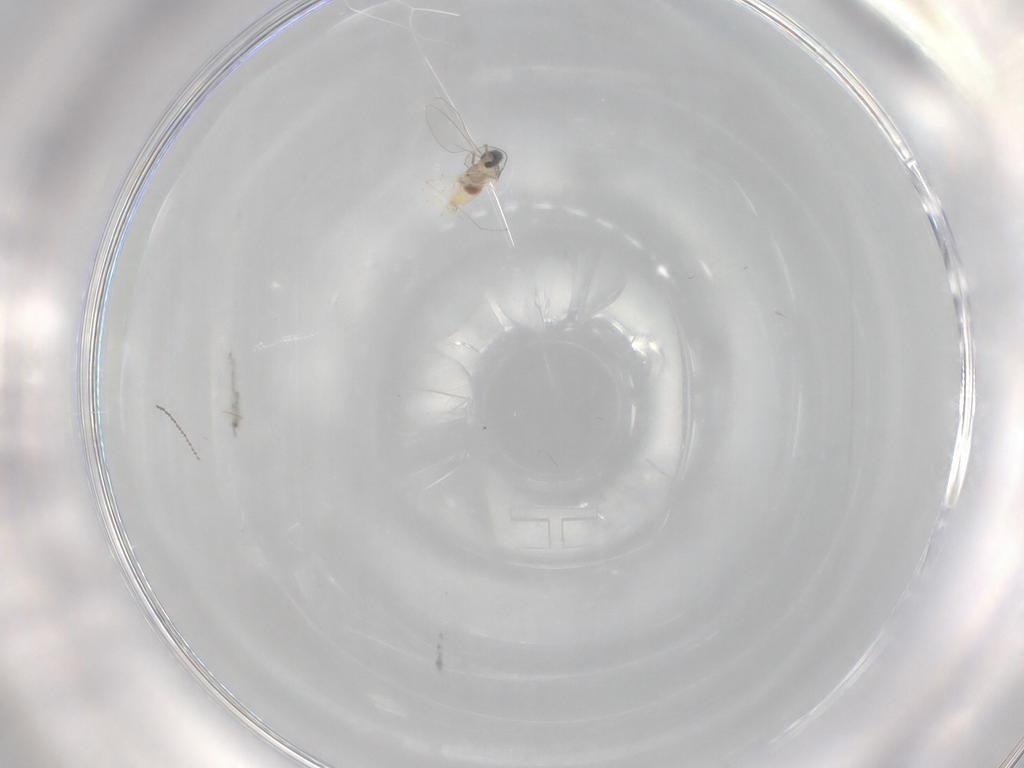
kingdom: Animalia
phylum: Arthropoda
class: Insecta
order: Diptera
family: Cecidomyiidae
